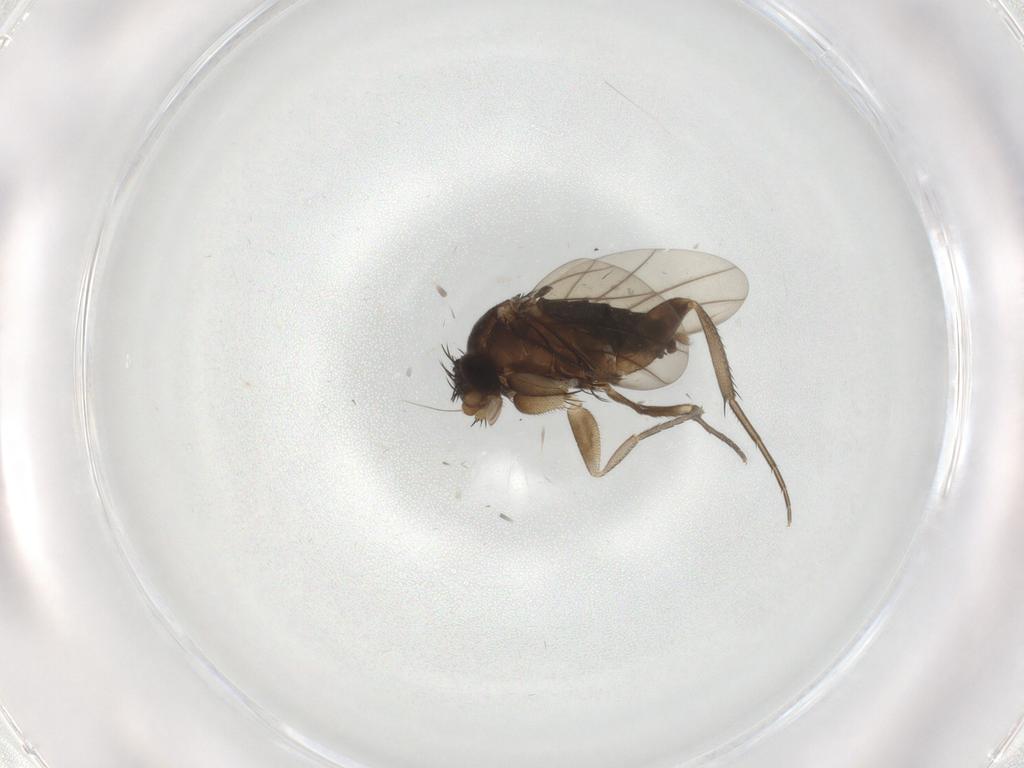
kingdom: Animalia
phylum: Arthropoda
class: Insecta
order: Diptera
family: Phoridae
